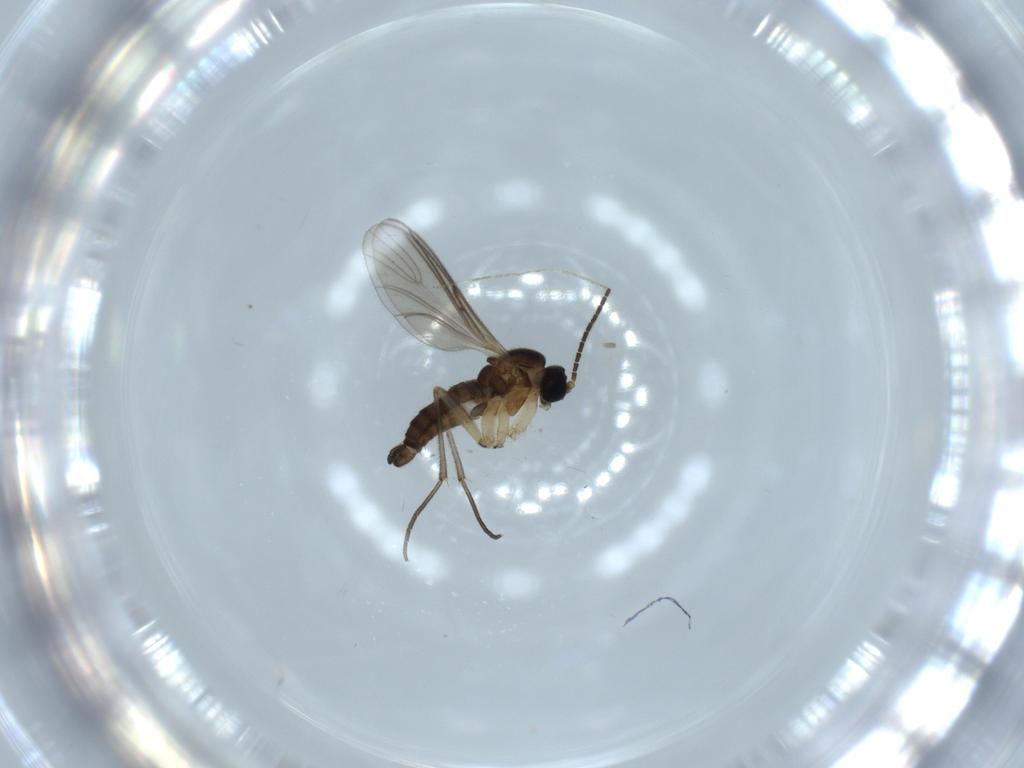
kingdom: Animalia
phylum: Arthropoda
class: Insecta
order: Diptera
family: Sciaridae
